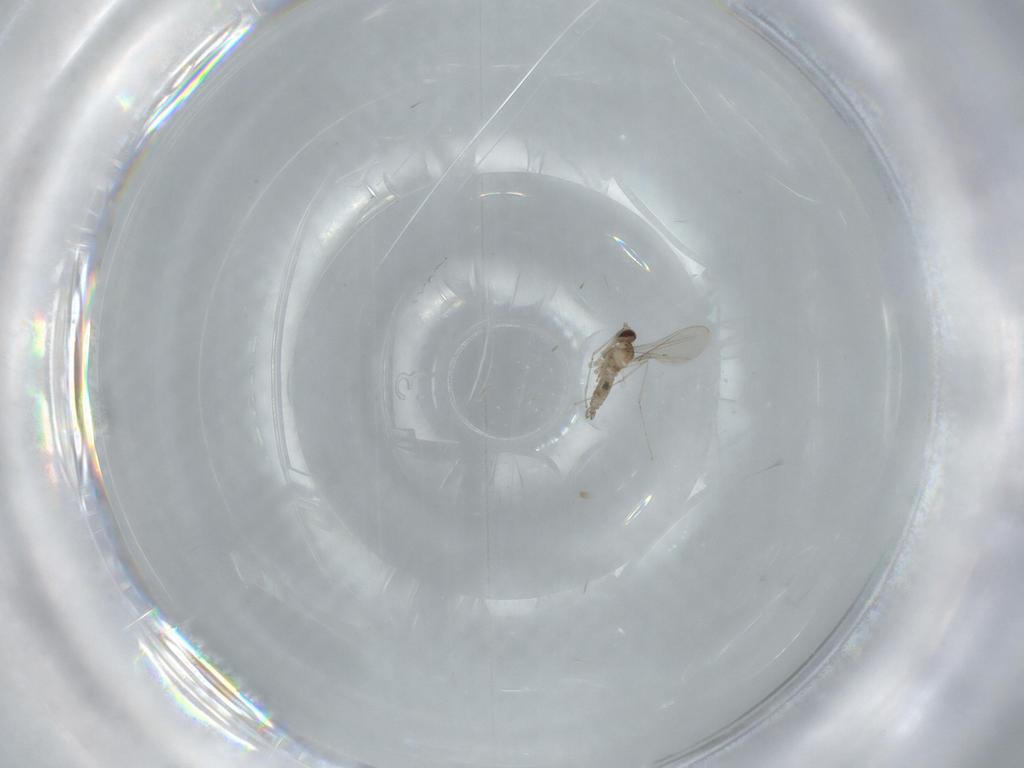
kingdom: Animalia
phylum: Arthropoda
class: Insecta
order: Diptera
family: Cecidomyiidae
